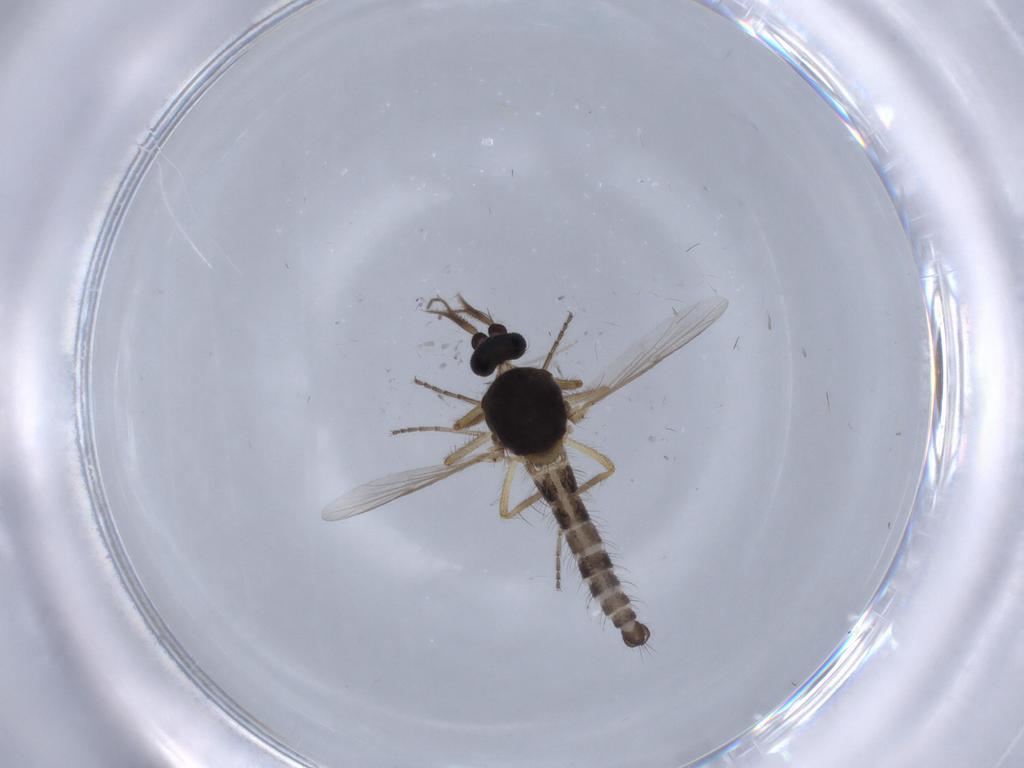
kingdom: Animalia
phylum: Arthropoda
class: Insecta
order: Diptera
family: Ceratopogonidae
